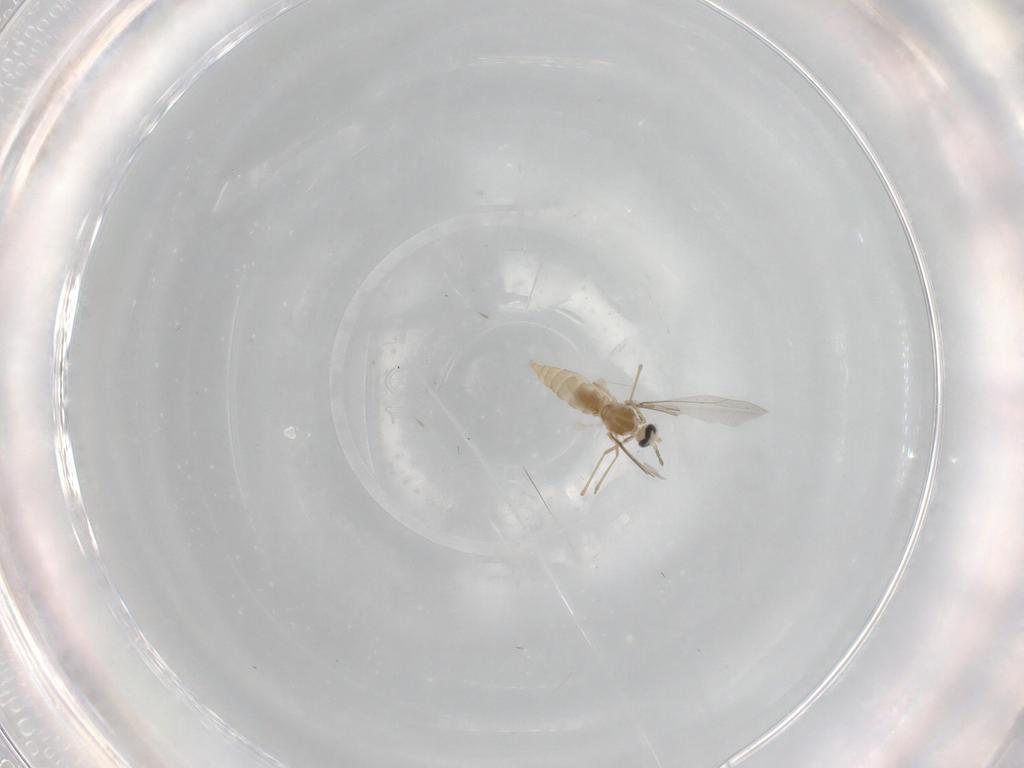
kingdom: Animalia
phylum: Arthropoda
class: Insecta
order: Diptera
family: Cecidomyiidae
